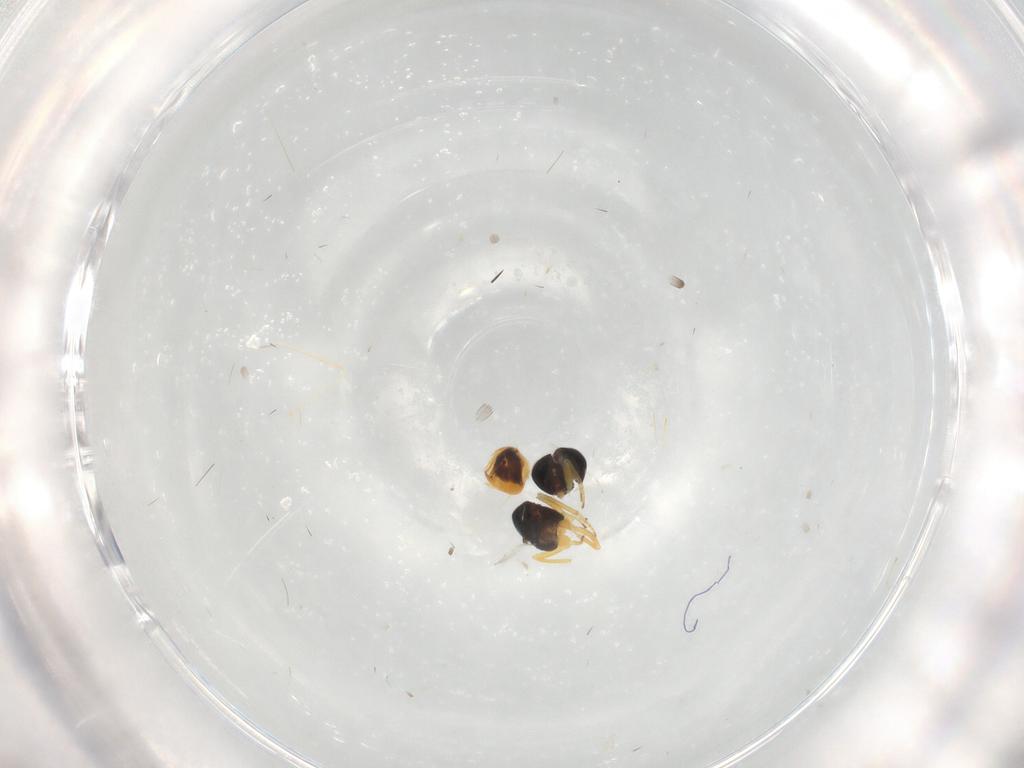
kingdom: Animalia
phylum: Arthropoda
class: Insecta
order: Hymenoptera
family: Encyrtidae
